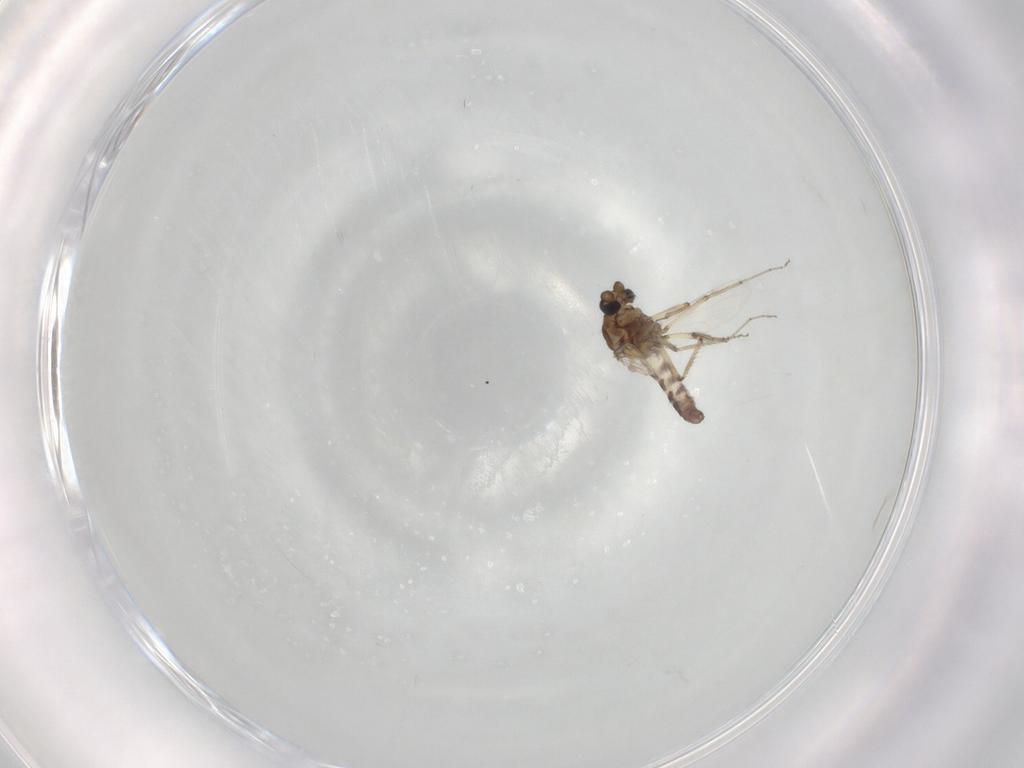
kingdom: Animalia
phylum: Arthropoda
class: Insecta
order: Diptera
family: Ceratopogonidae
